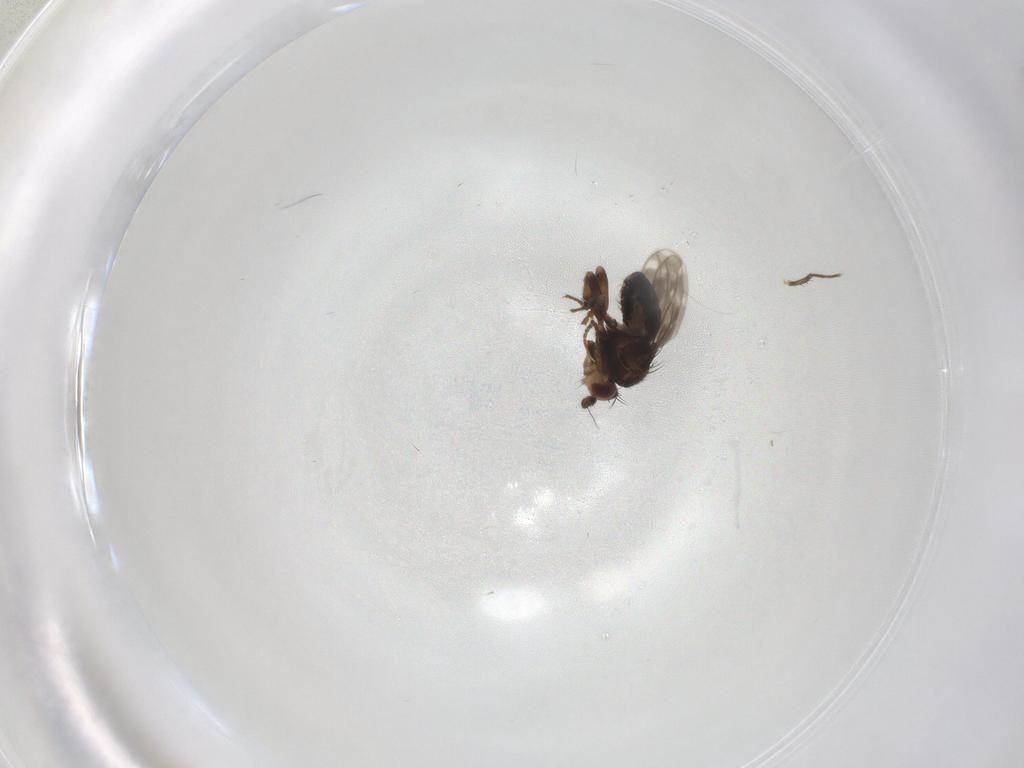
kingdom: Animalia
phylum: Arthropoda
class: Insecta
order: Diptera
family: Sphaeroceridae
